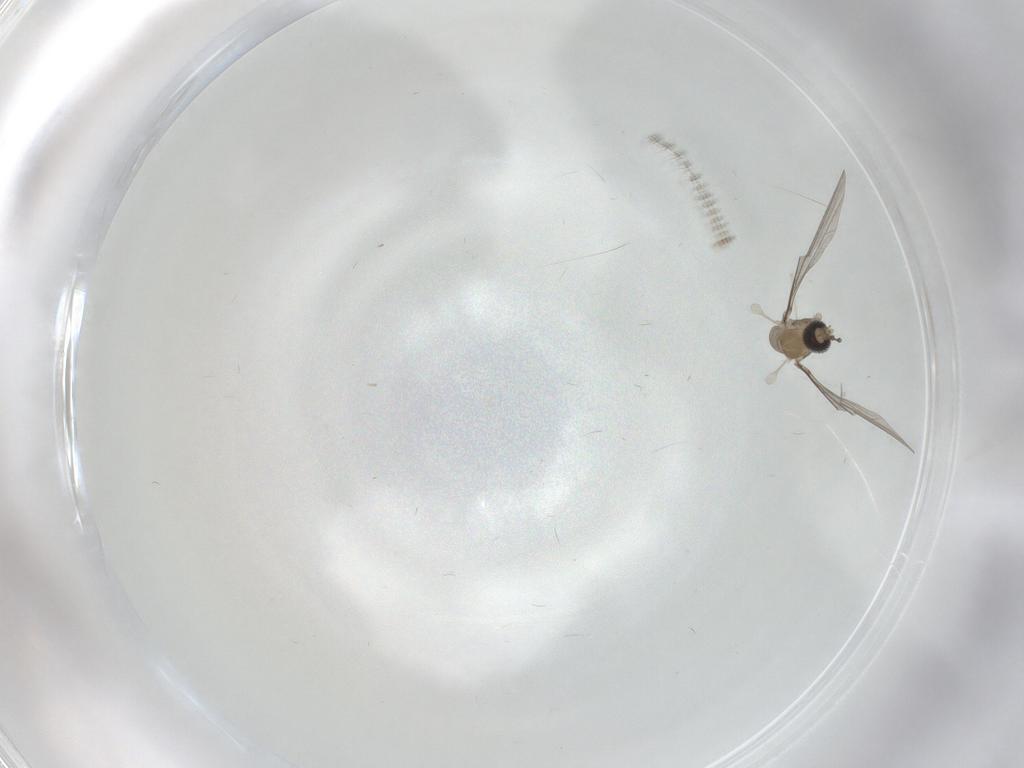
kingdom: Animalia
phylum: Arthropoda
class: Insecta
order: Diptera
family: Cecidomyiidae
